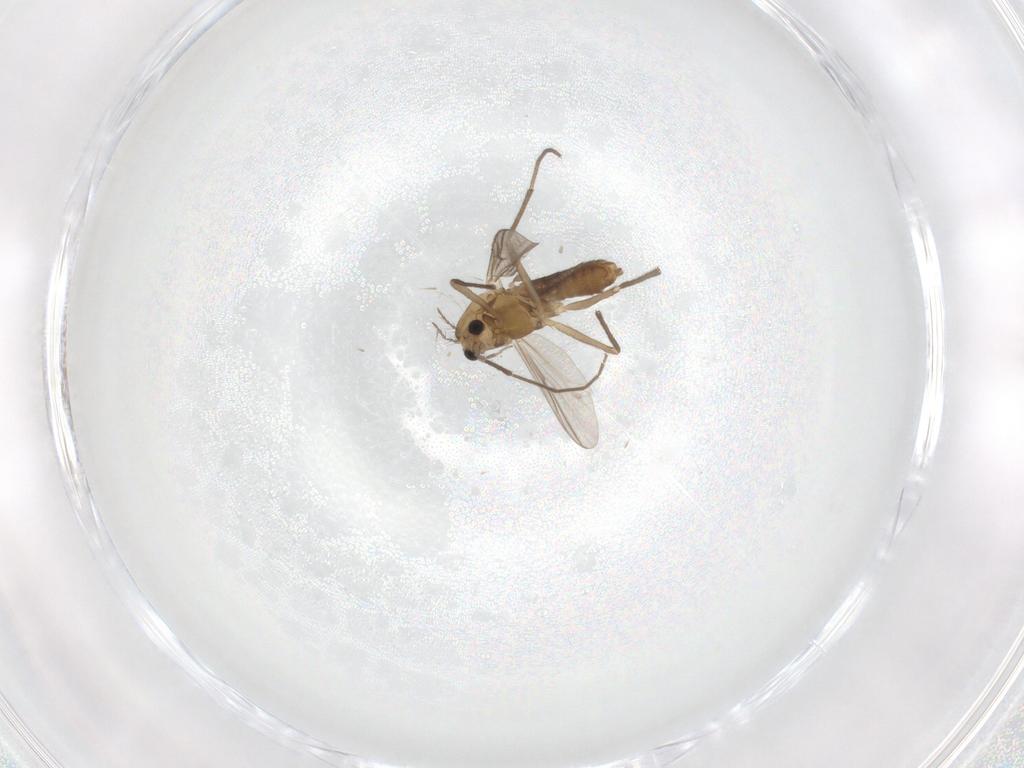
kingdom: Animalia
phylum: Arthropoda
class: Insecta
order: Diptera
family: Chironomidae
